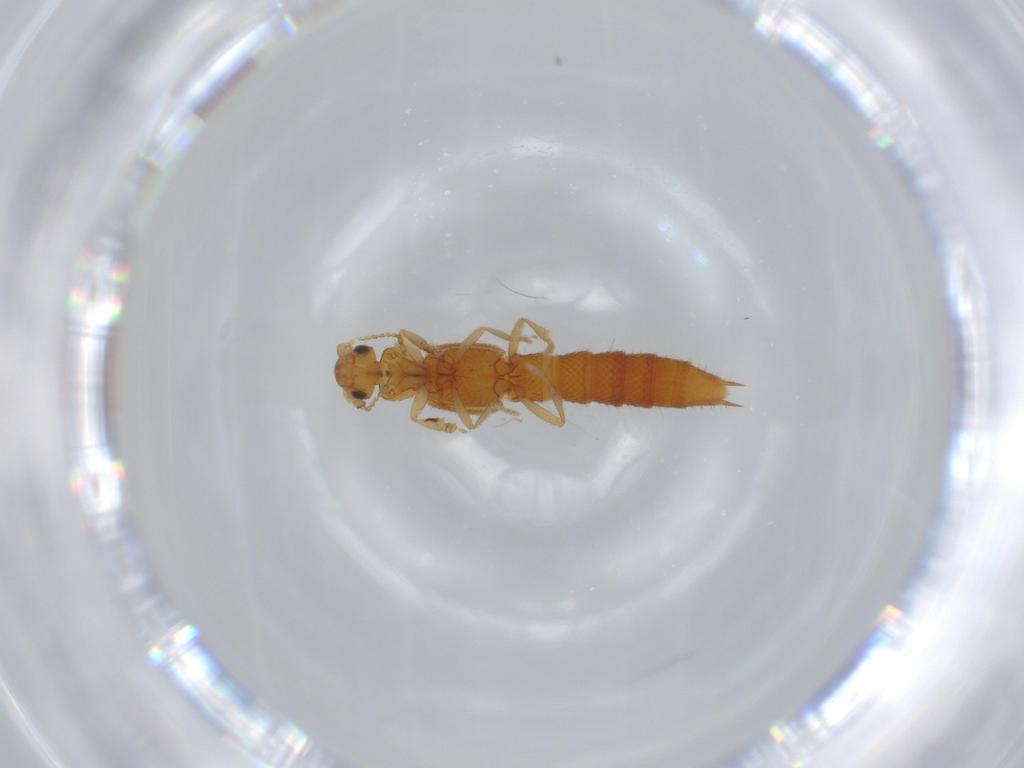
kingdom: Animalia
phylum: Arthropoda
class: Insecta
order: Coleoptera
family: Staphylinidae
